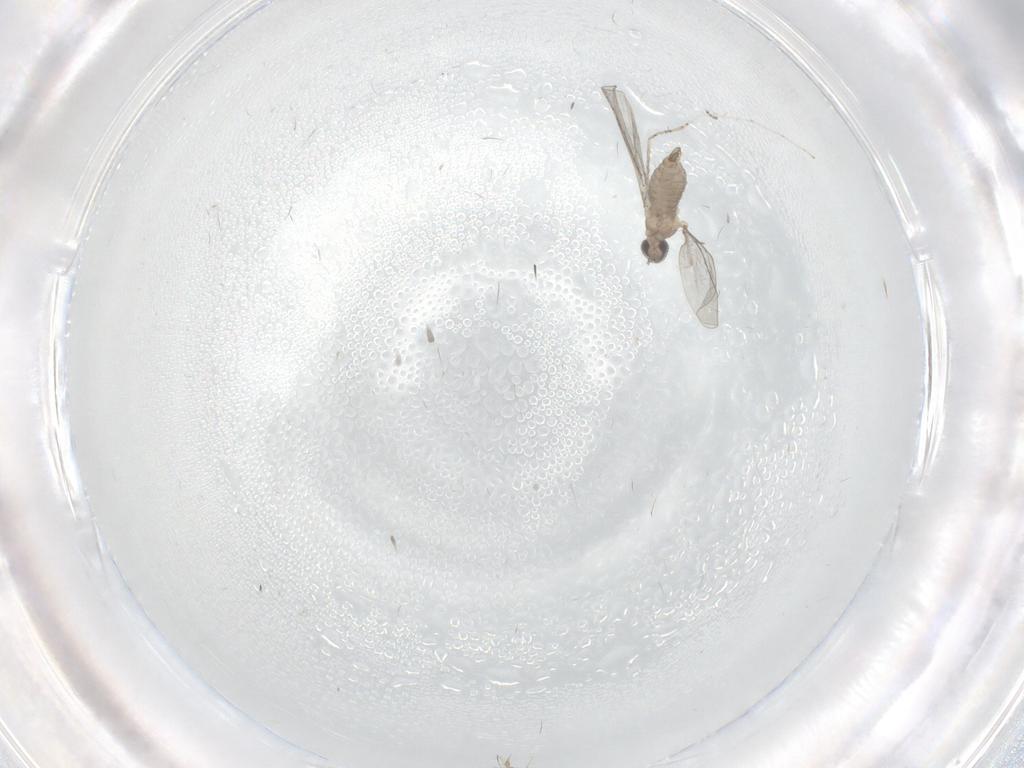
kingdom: Animalia
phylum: Arthropoda
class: Insecta
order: Diptera
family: Cecidomyiidae
